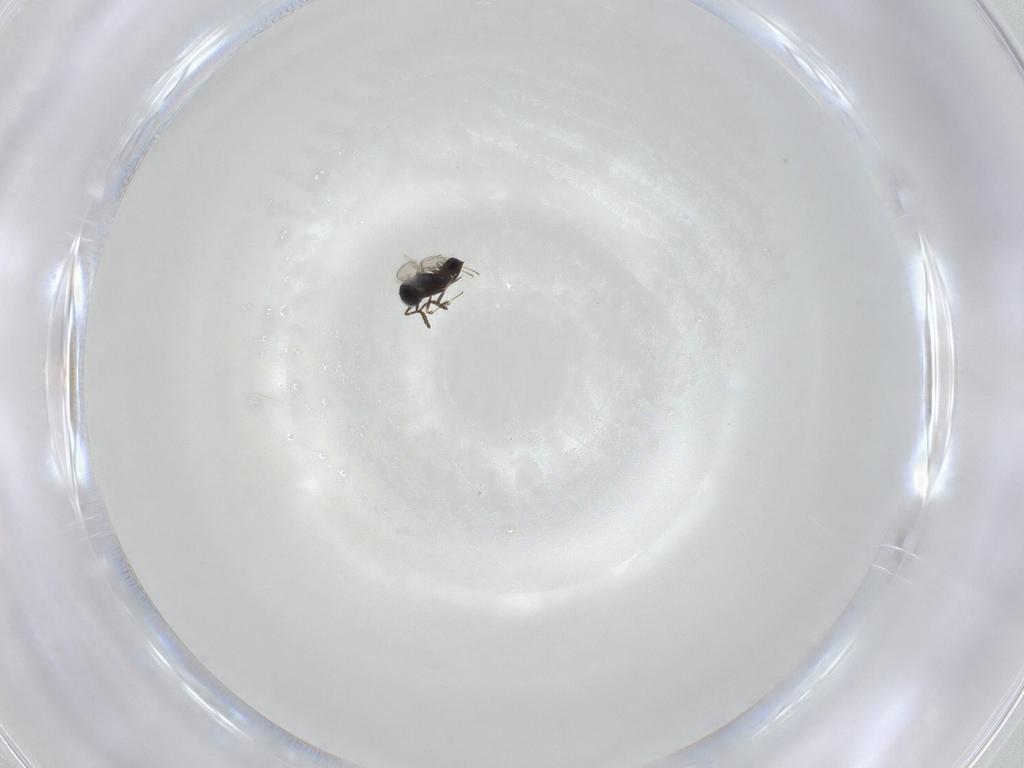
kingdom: Animalia
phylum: Arthropoda
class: Insecta
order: Hymenoptera
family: Scelionidae
